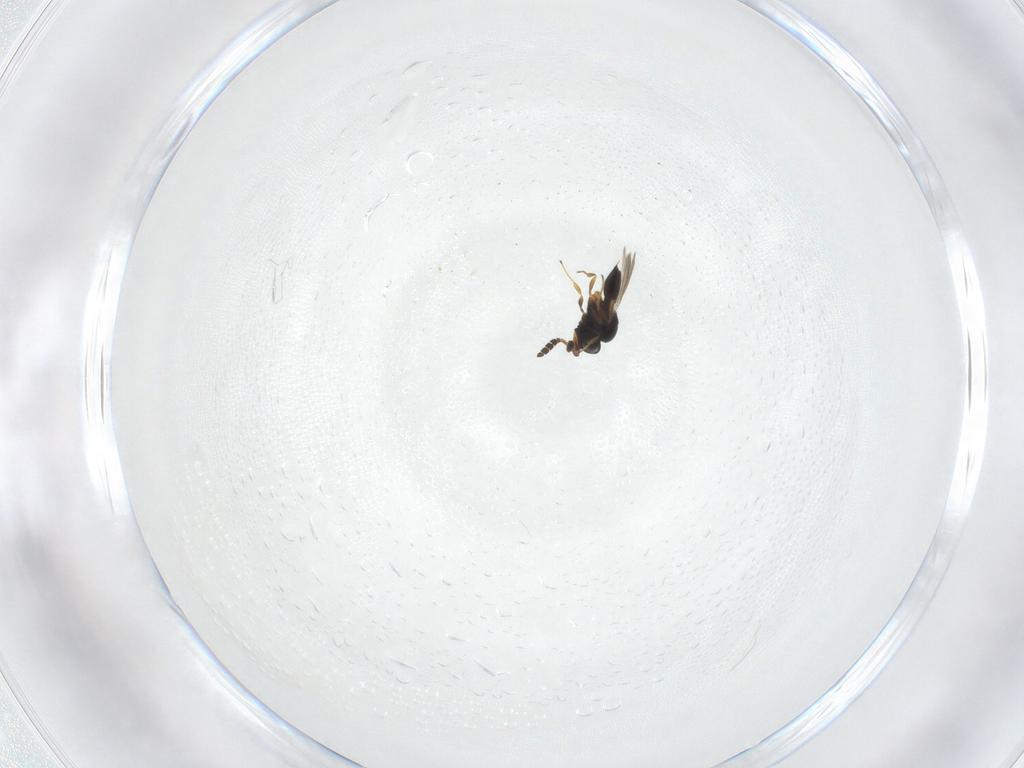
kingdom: Animalia
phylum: Arthropoda
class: Insecta
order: Hymenoptera
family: Scelionidae
